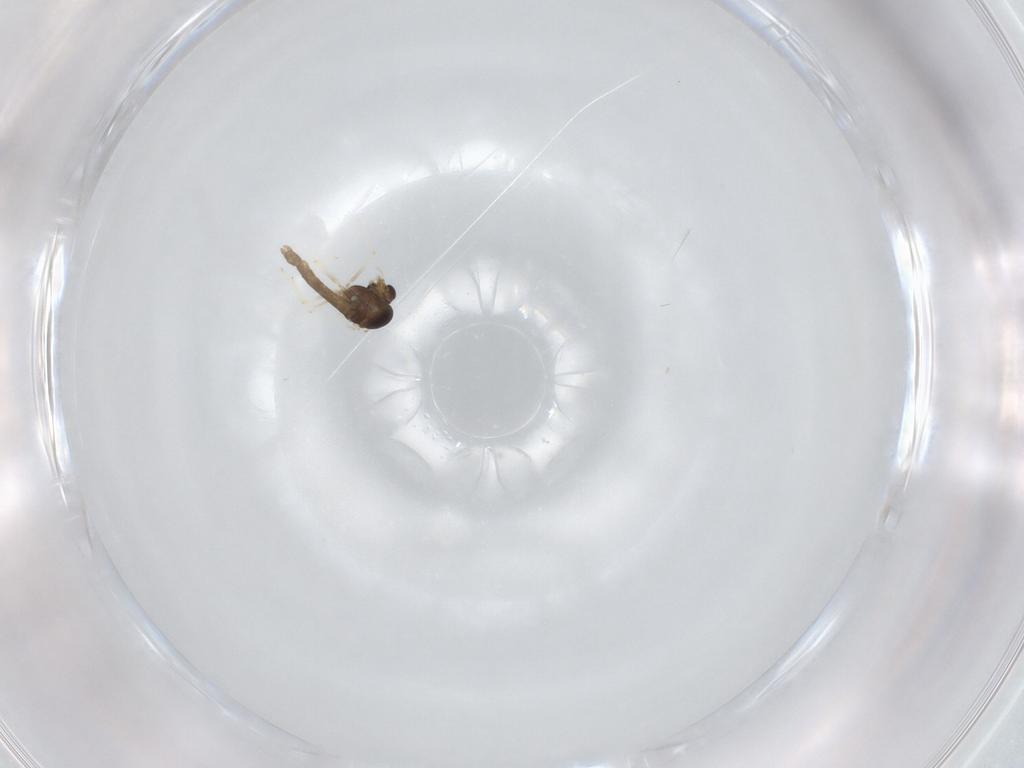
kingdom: Animalia
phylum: Arthropoda
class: Insecta
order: Diptera
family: Chironomidae
